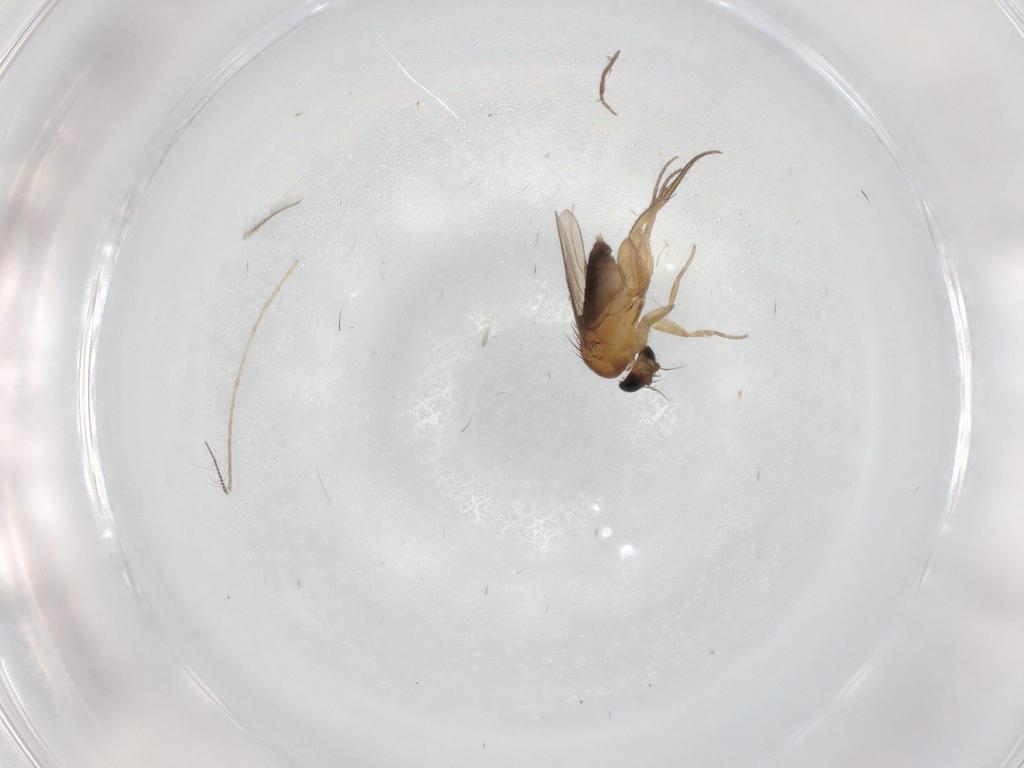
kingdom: Animalia
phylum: Arthropoda
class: Insecta
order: Diptera
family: Phoridae
